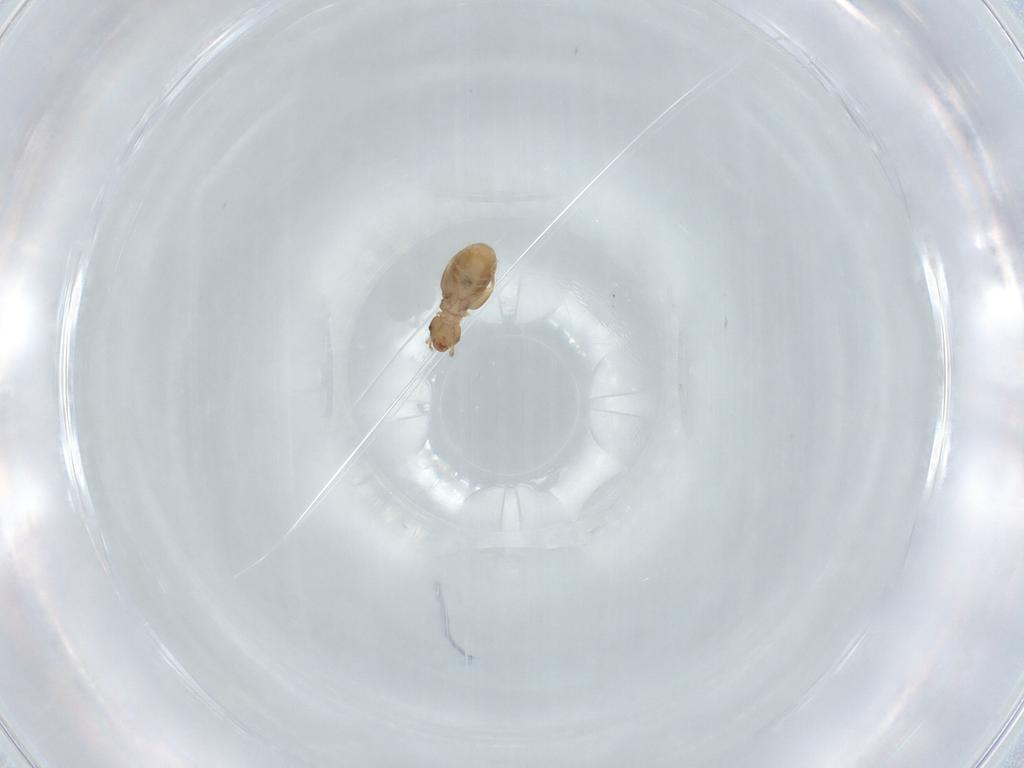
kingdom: Animalia
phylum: Arthropoda
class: Insecta
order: Psocodea
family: Liposcelididae
